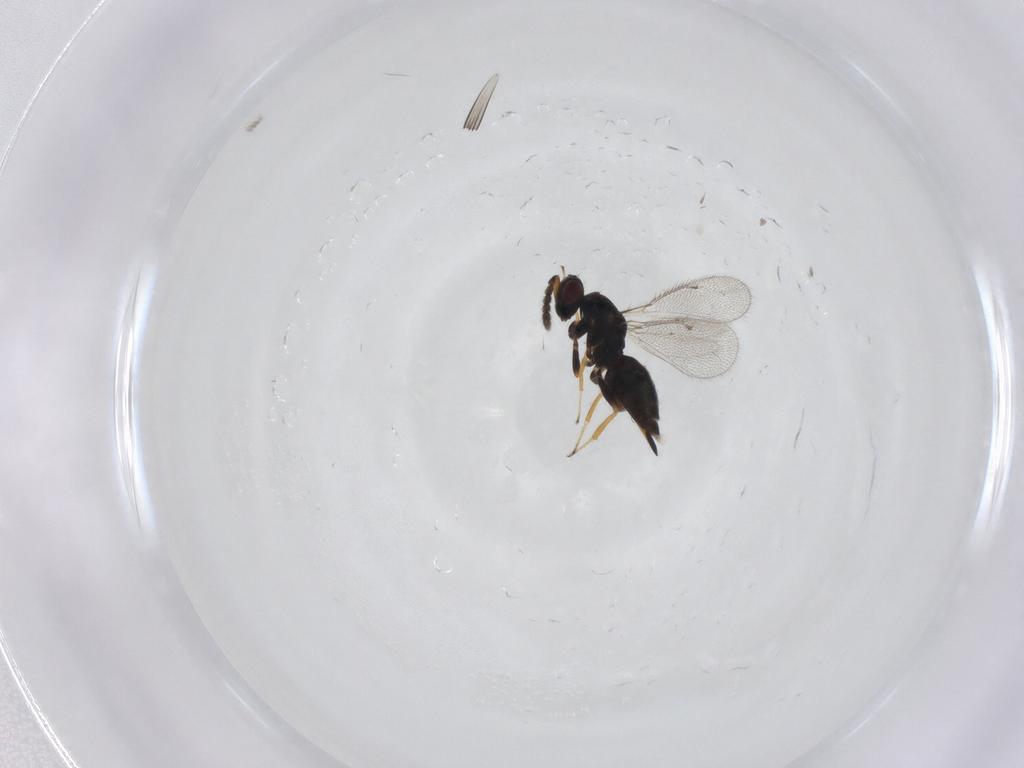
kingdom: Animalia
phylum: Arthropoda
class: Insecta
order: Hymenoptera
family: Eulophidae
